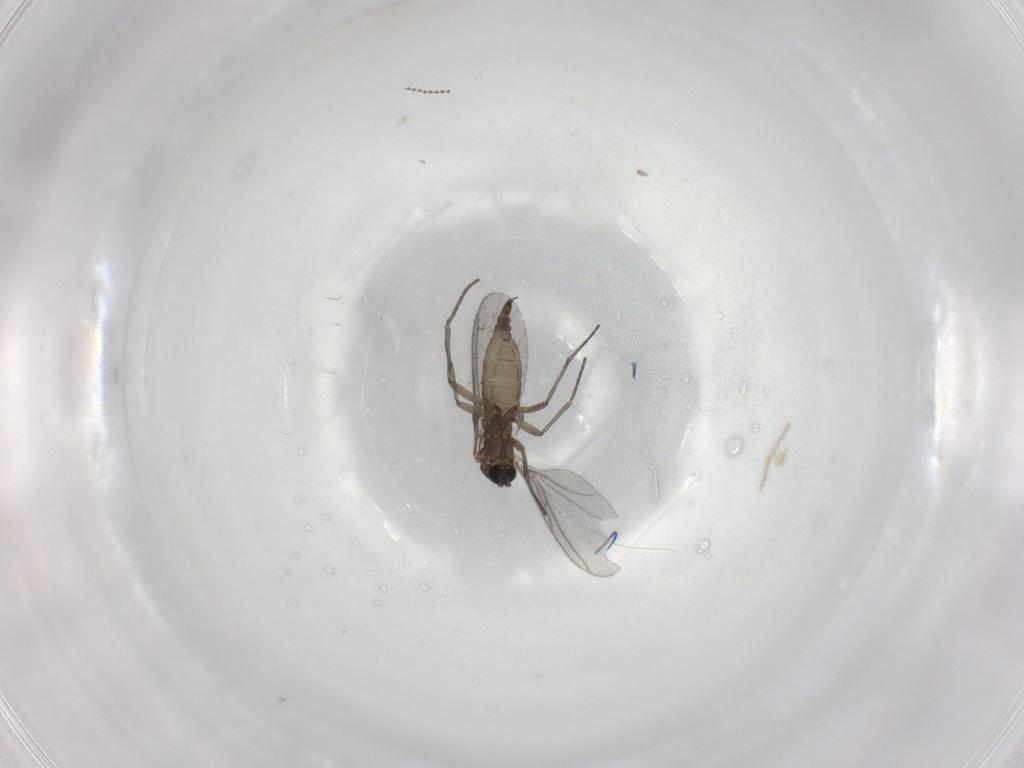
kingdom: Animalia
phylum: Arthropoda
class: Insecta
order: Diptera
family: Sciaridae
